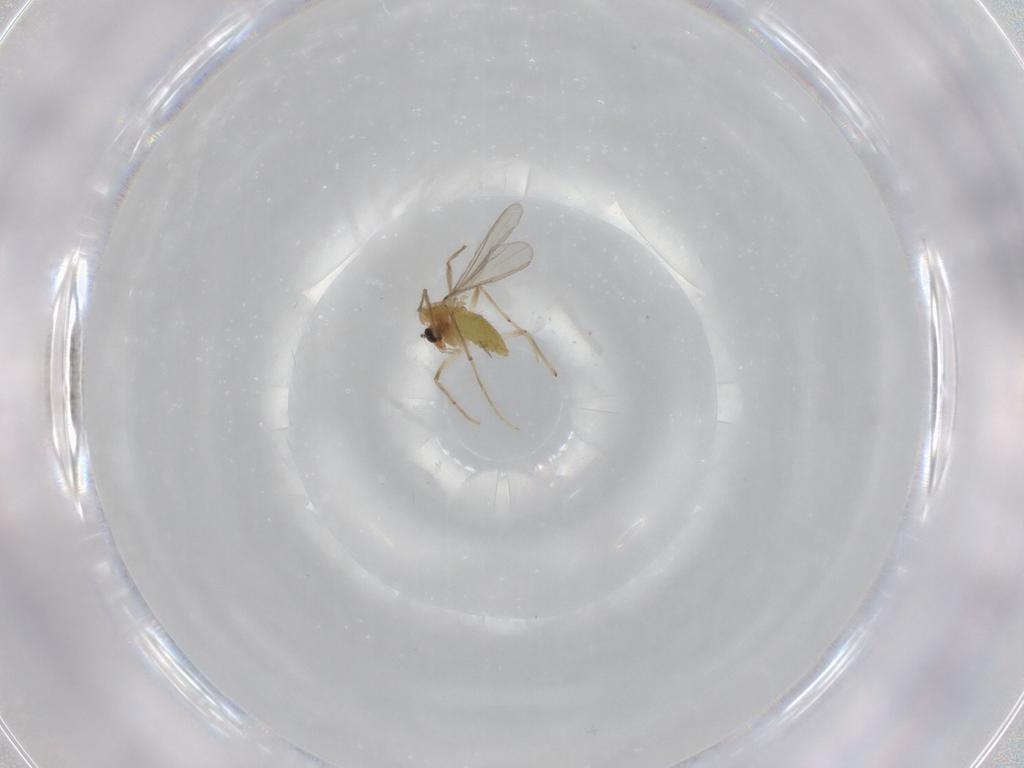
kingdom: Animalia
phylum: Arthropoda
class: Insecta
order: Diptera
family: Chironomidae
